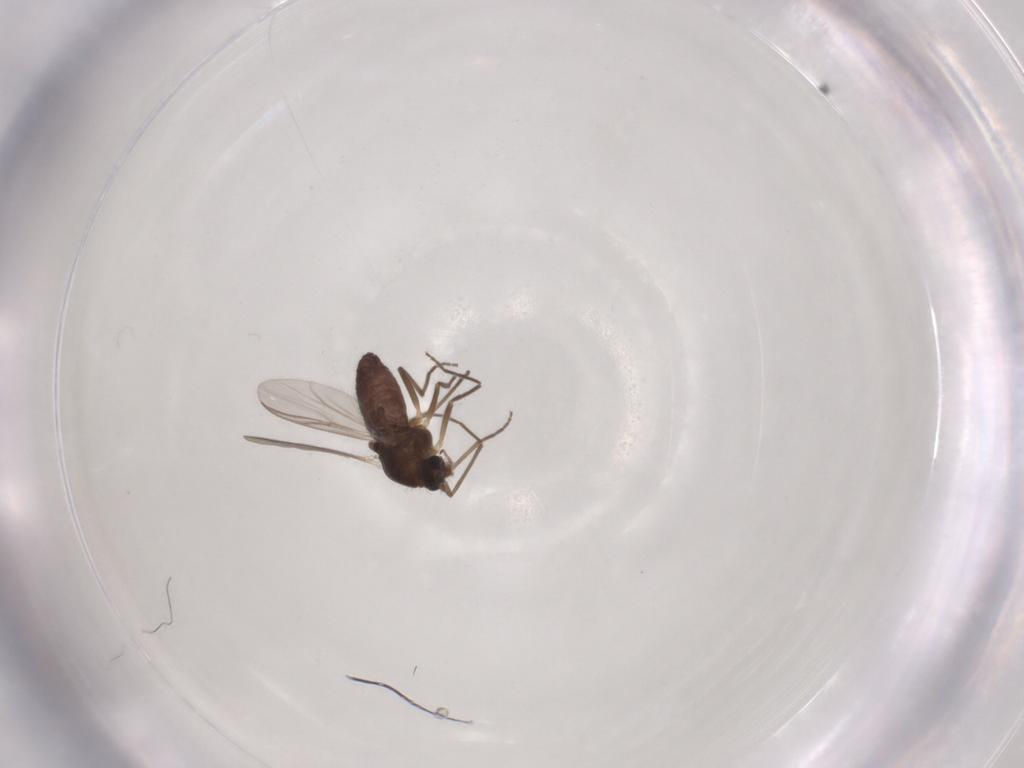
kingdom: Animalia
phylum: Arthropoda
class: Insecta
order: Diptera
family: Chironomidae
